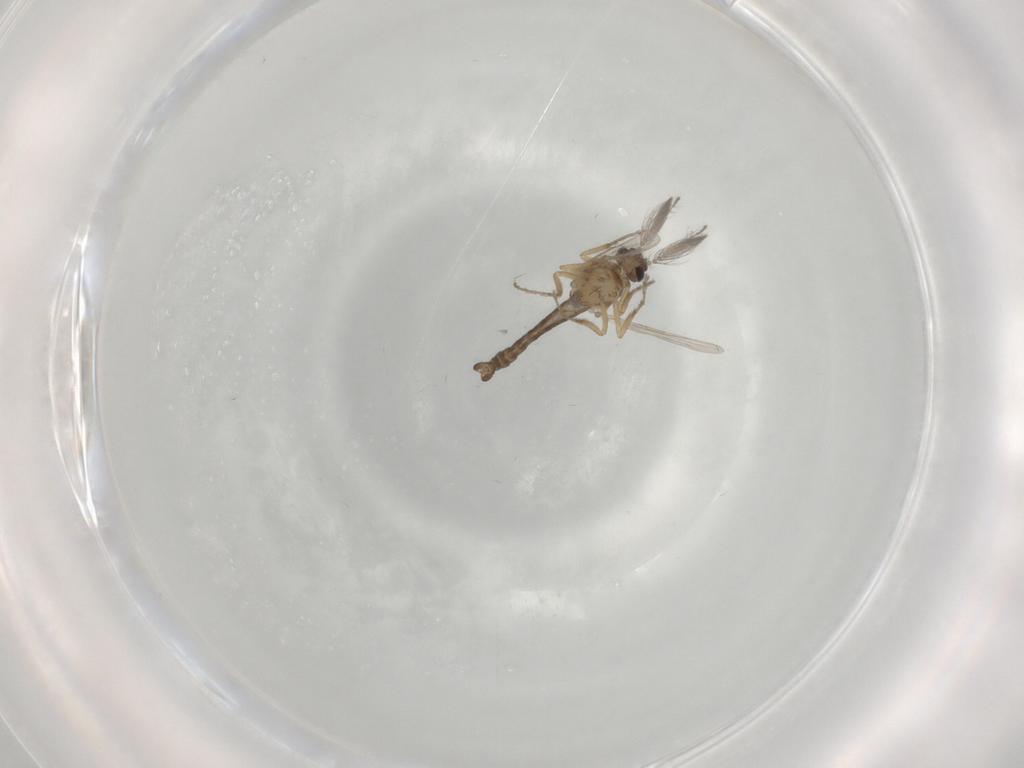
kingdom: Animalia
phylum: Arthropoda
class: Insecta
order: Diptera
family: Ceratopogonidae
